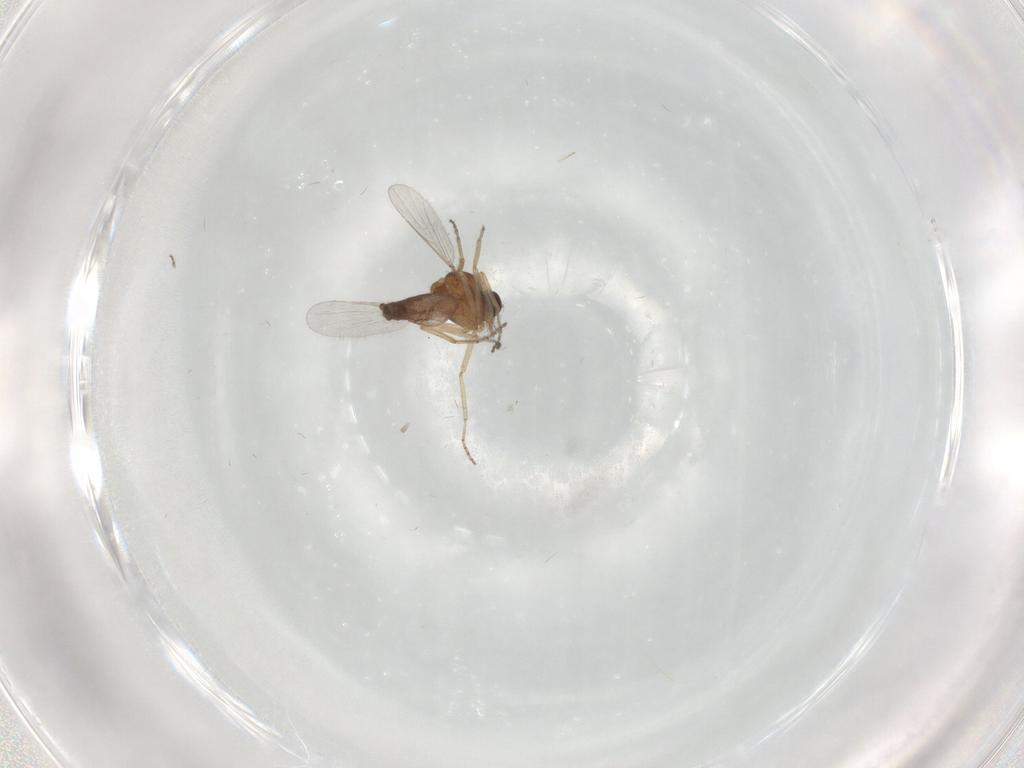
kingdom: Animalia
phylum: Arthropoda
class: Insecta
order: Diptera
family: Ceratopogonidae
